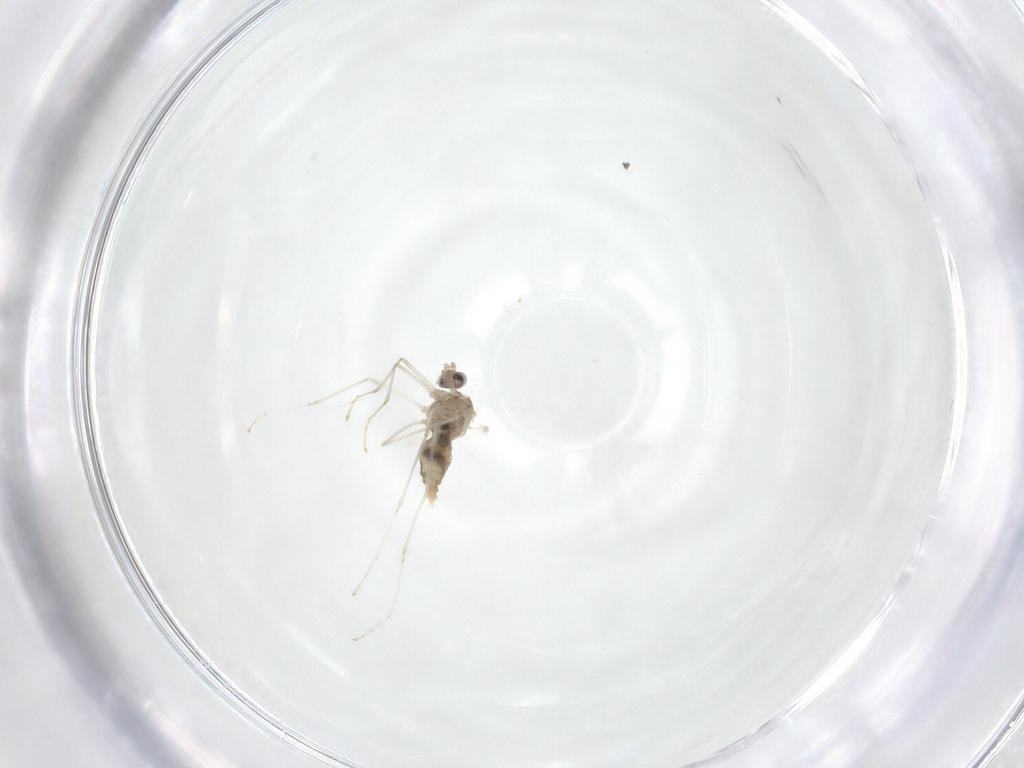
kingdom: Animalia
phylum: Arthropoda
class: Insecta
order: Diptera
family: Cecidomyiidae
